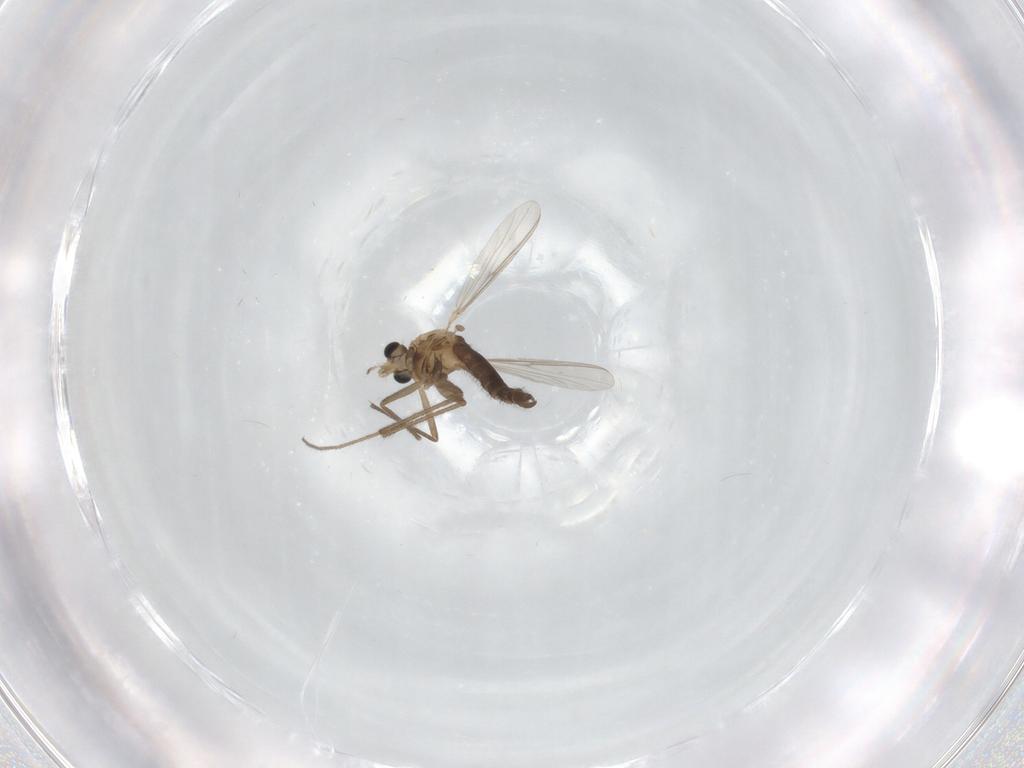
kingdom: Animalia
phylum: Arthropoda
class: Insecta
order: Diptera
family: Chironomidae
